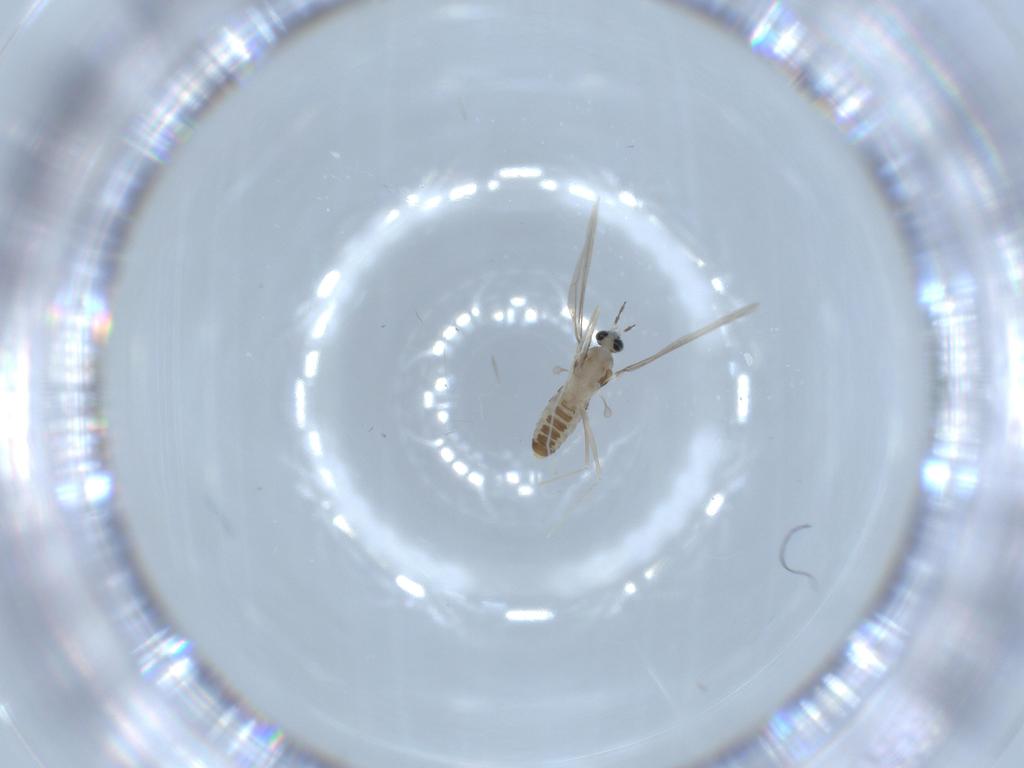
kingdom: Animalia
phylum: Arthropoda
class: Insecta
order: Diptera
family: Cecidomyiidae
